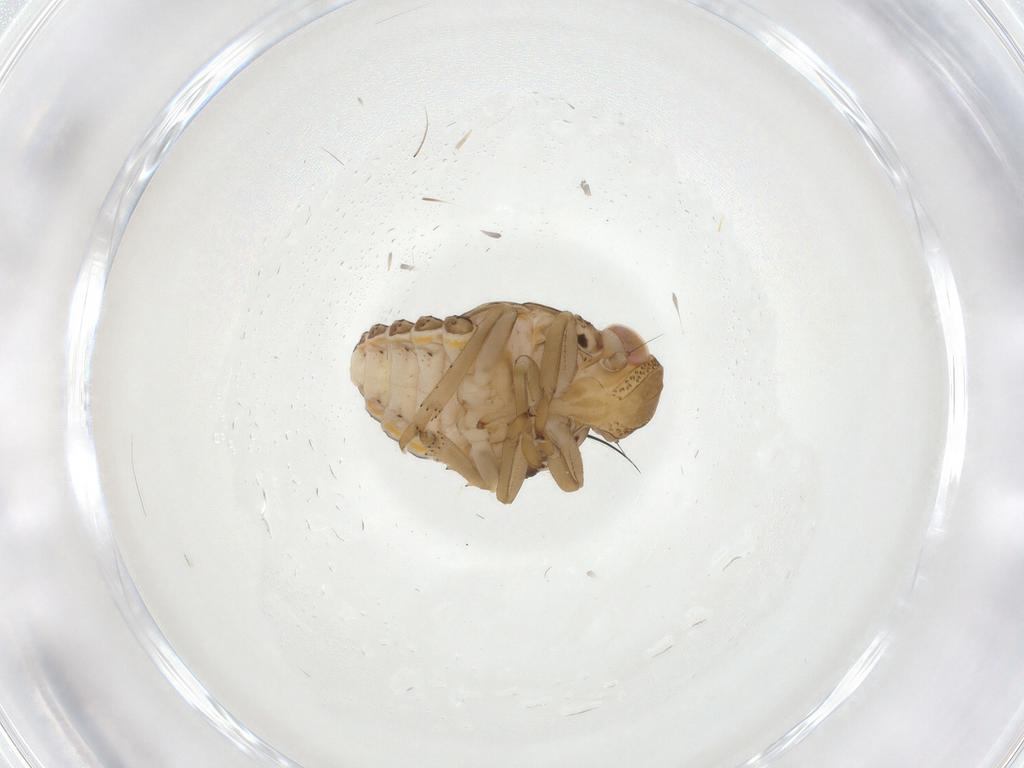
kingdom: Animalia
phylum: Arthropoda
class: Insecta
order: Hemiptera
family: Issidae
